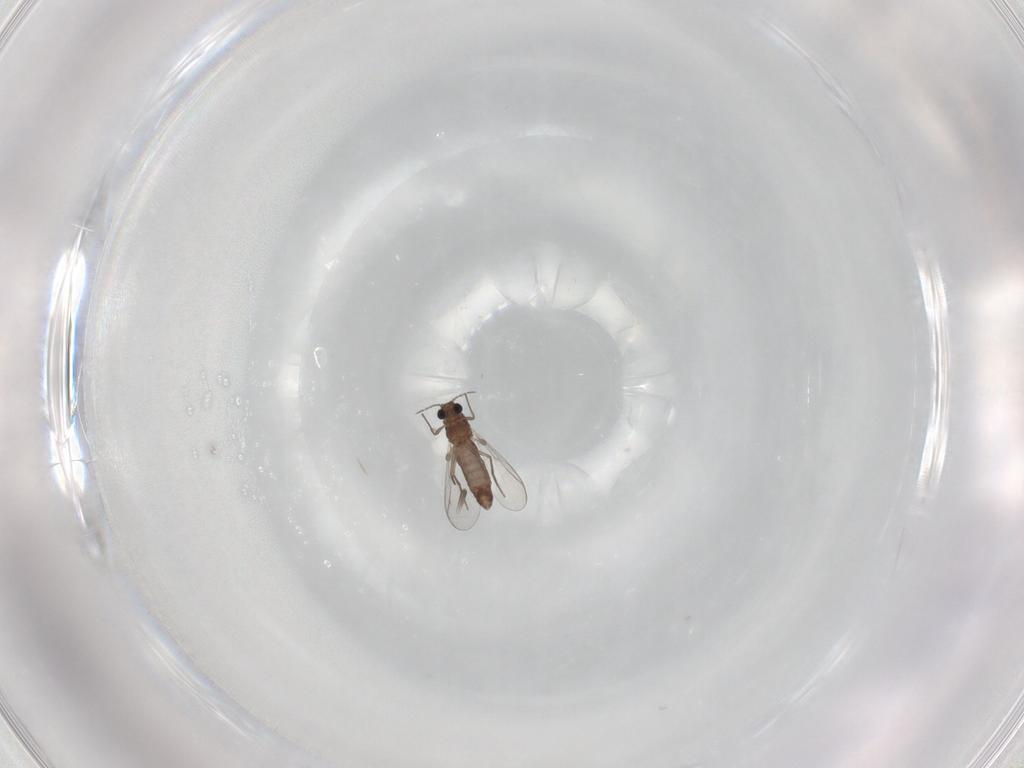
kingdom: Animalia
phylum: Arthropoda
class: Insecta
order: Diptera
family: Chironomidae
